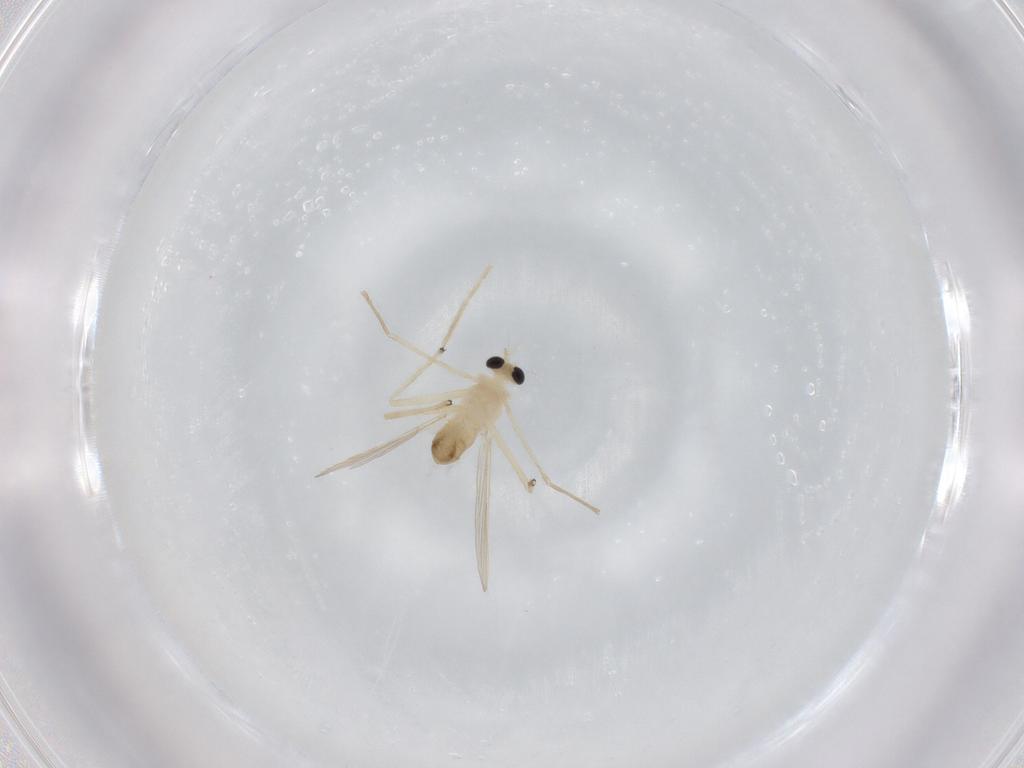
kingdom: Animalia
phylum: Arthropoda
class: Insecta
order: Diptera
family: Chironomidae
